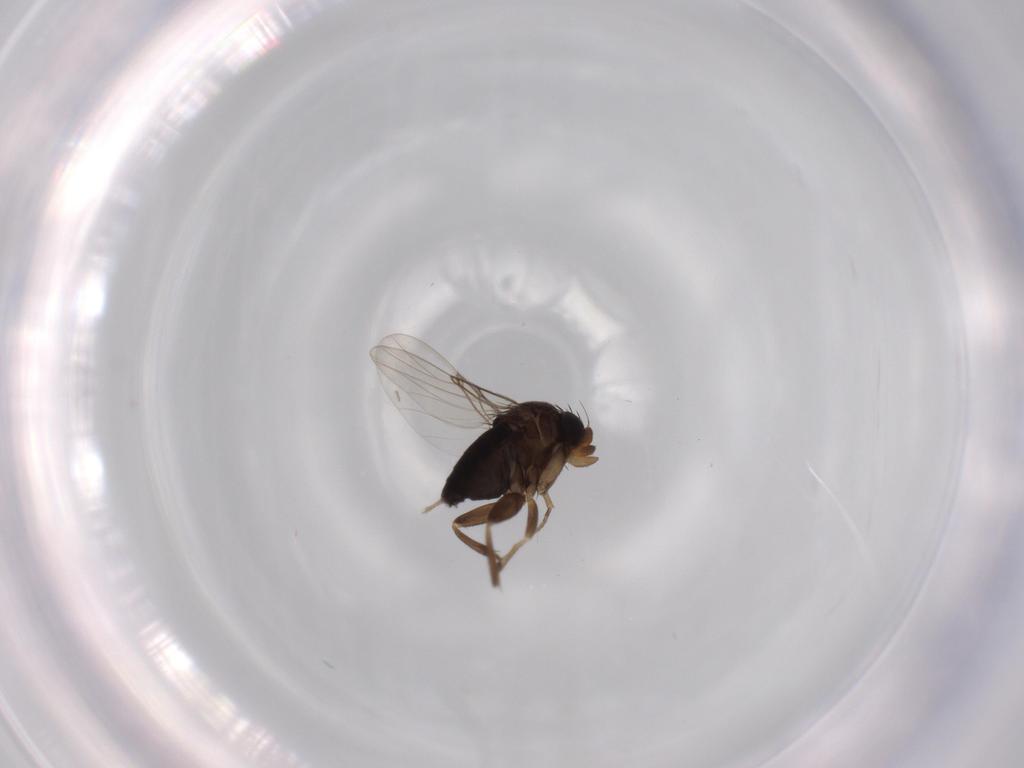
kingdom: Animalia
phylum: Arthropoda
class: Insecta
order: Diptera
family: Phoridae
